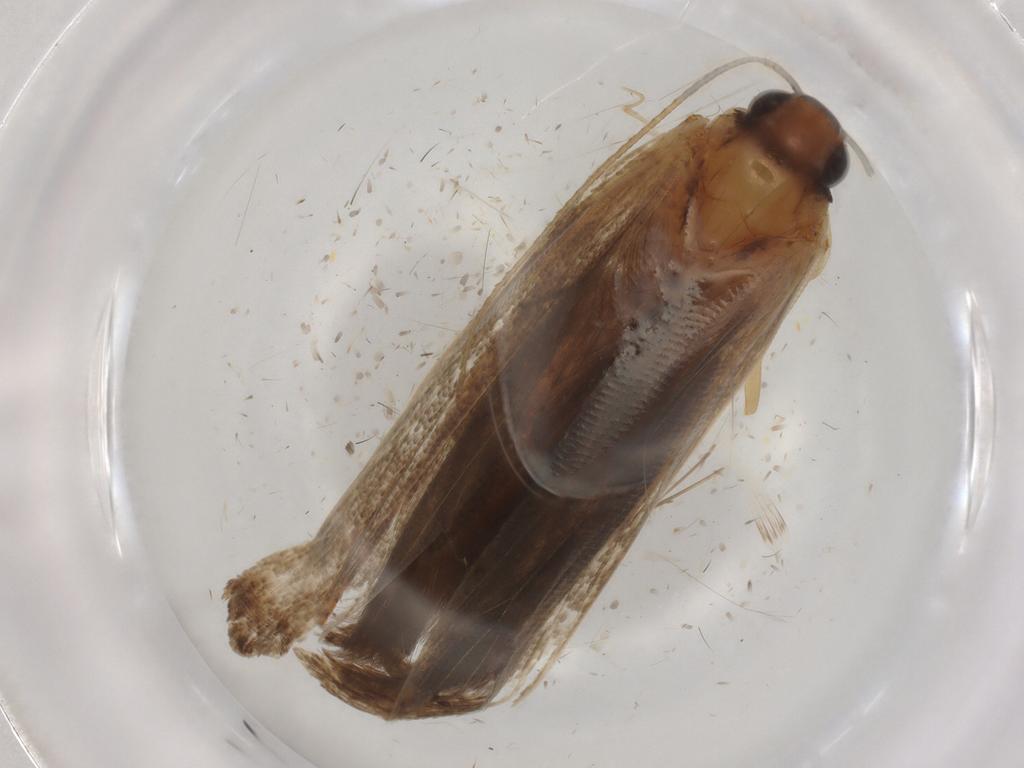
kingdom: Animalia
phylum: Arthropoda
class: Insecta
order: Lepidoptera
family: Gelechiidae
